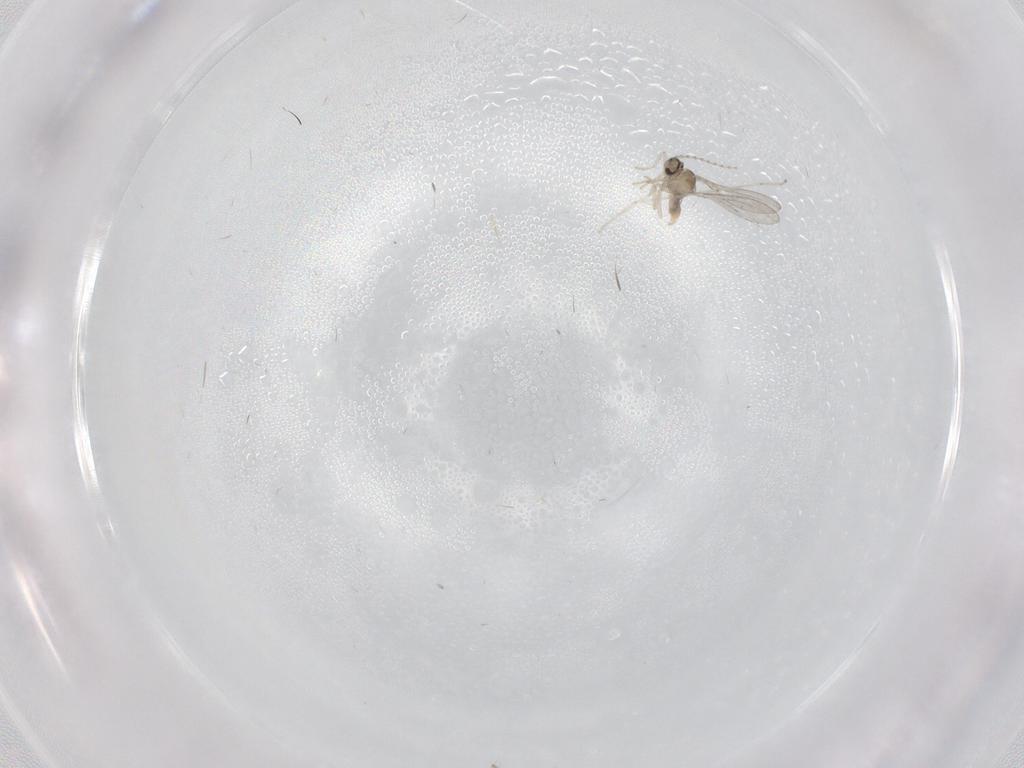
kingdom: Animalia
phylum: Arthropoda
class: Insecta
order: Diptera
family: Cecidomyiidae
